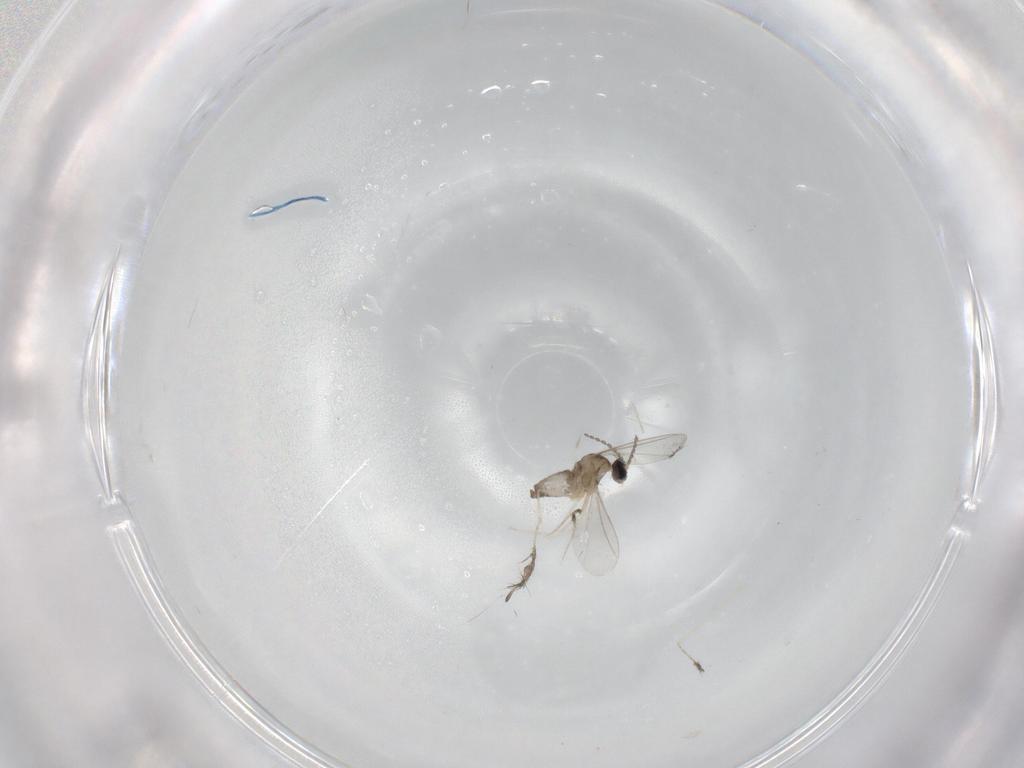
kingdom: Animalia
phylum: Arthropoda
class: Insecta
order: Diptera
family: Cecidomyiidae
